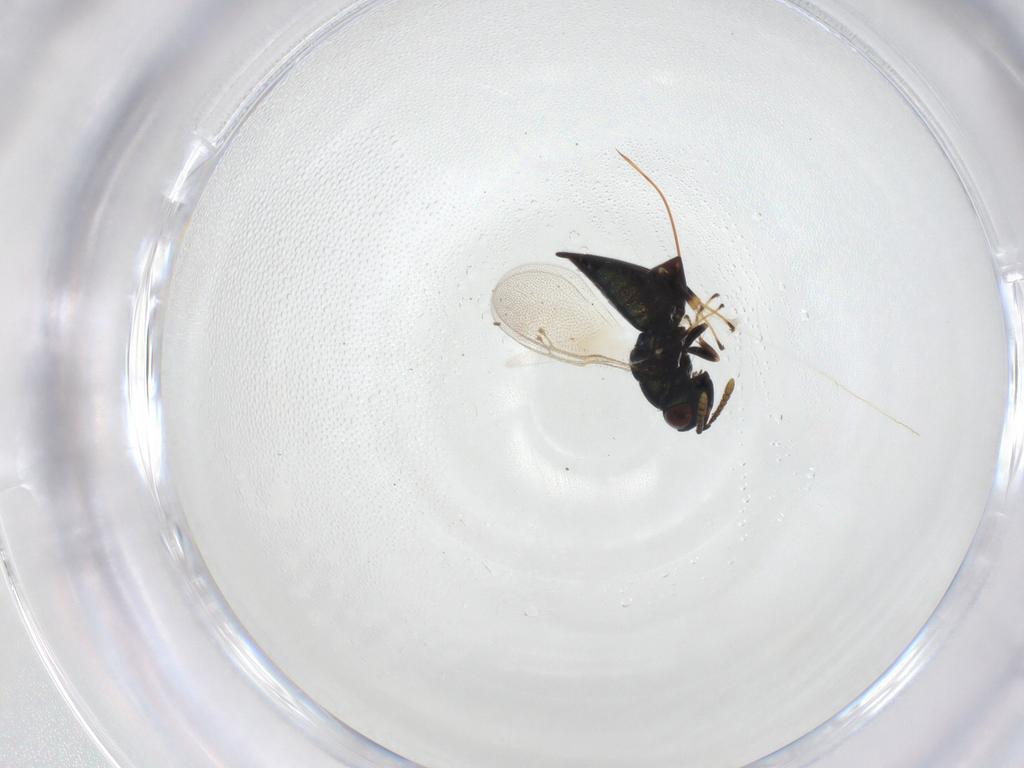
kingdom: Animalia
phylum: Arthropoda
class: Insecta
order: Hymenoptera
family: Pteromalidae
